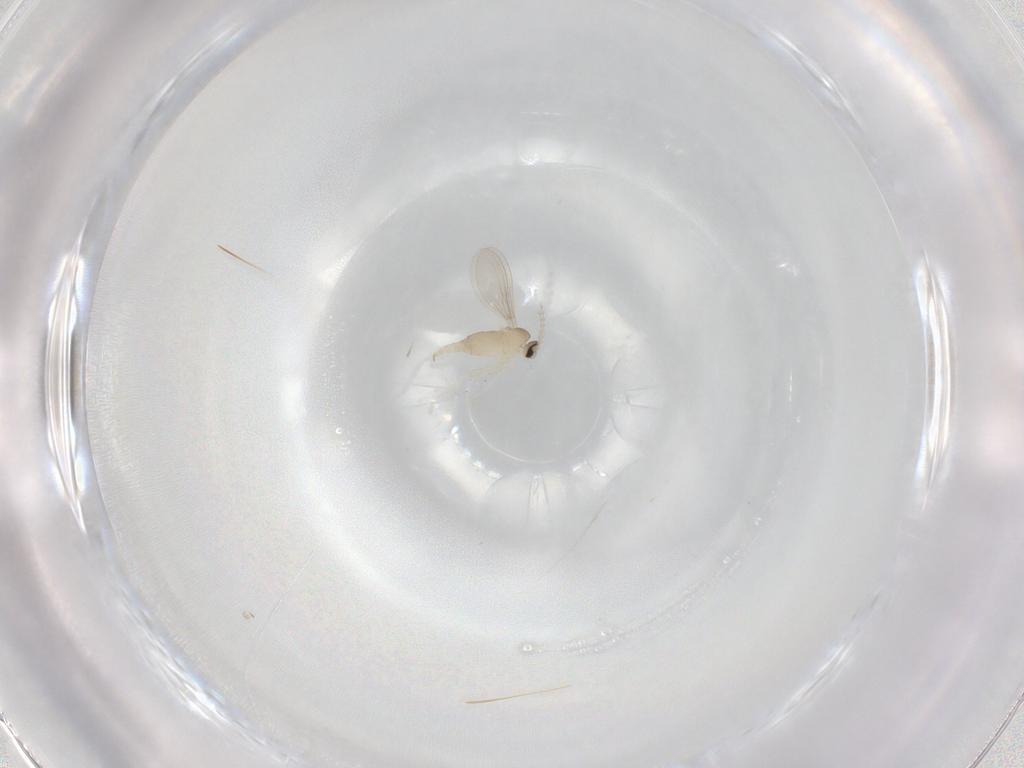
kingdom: Animalia
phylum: Arthropoda
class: Insecta
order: Diptera
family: Cecidomyiidae
